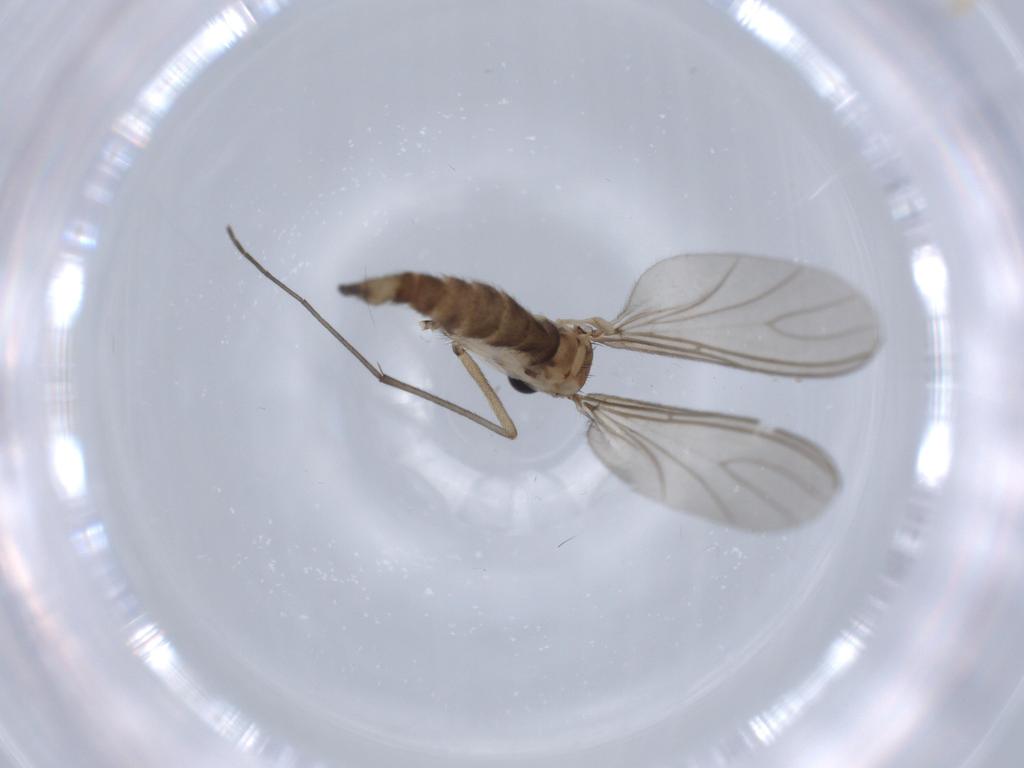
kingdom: Animalia
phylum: Arthropoda
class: Insecta
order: Diptera
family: Sciaridae
